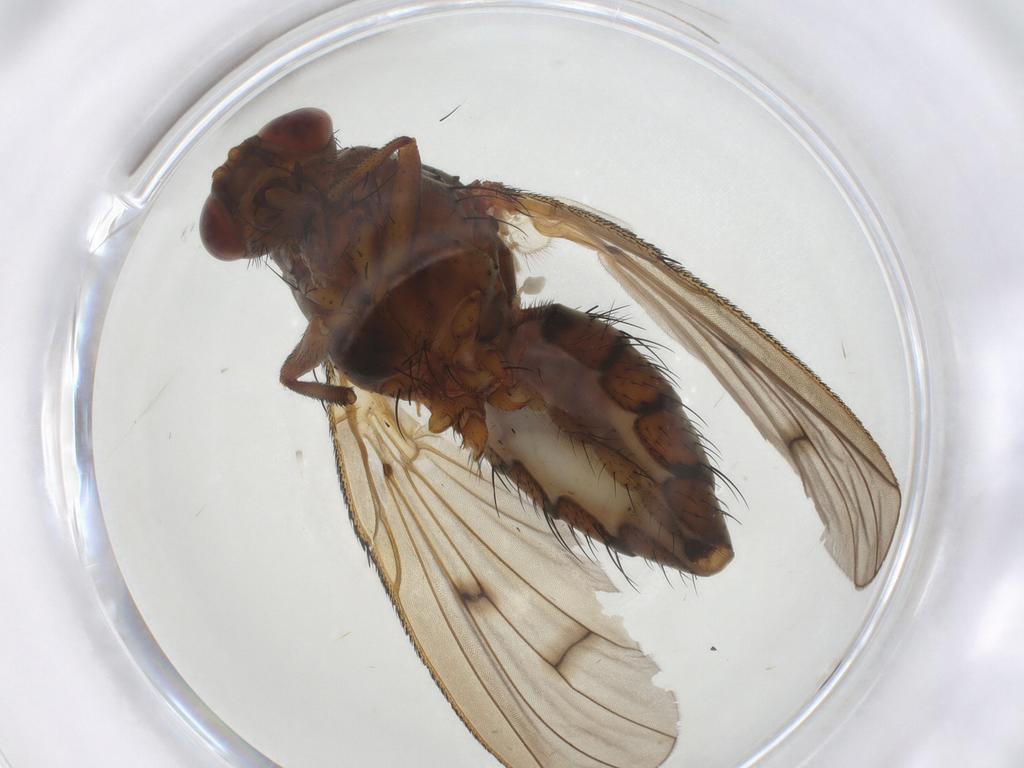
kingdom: Animalia
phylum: Arthropoda
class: Insecta
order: Diptera
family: Anthomyiidae
